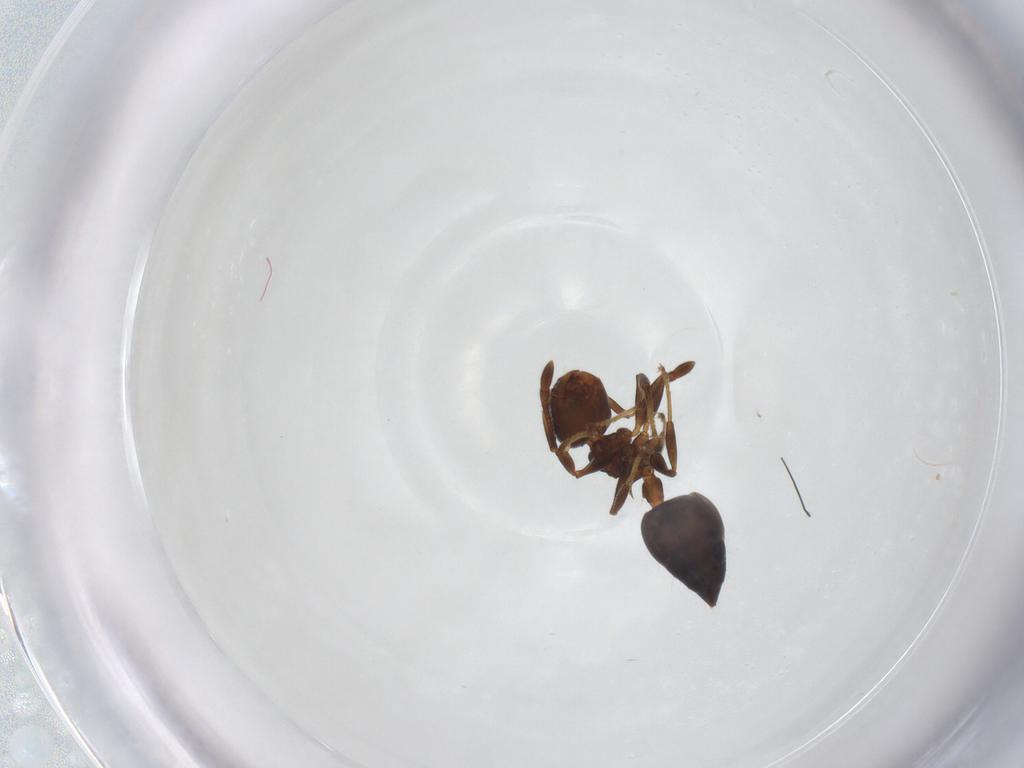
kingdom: Animalia
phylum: Arthropoda
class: Insecta
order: Hymenoptera
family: Formicidae
